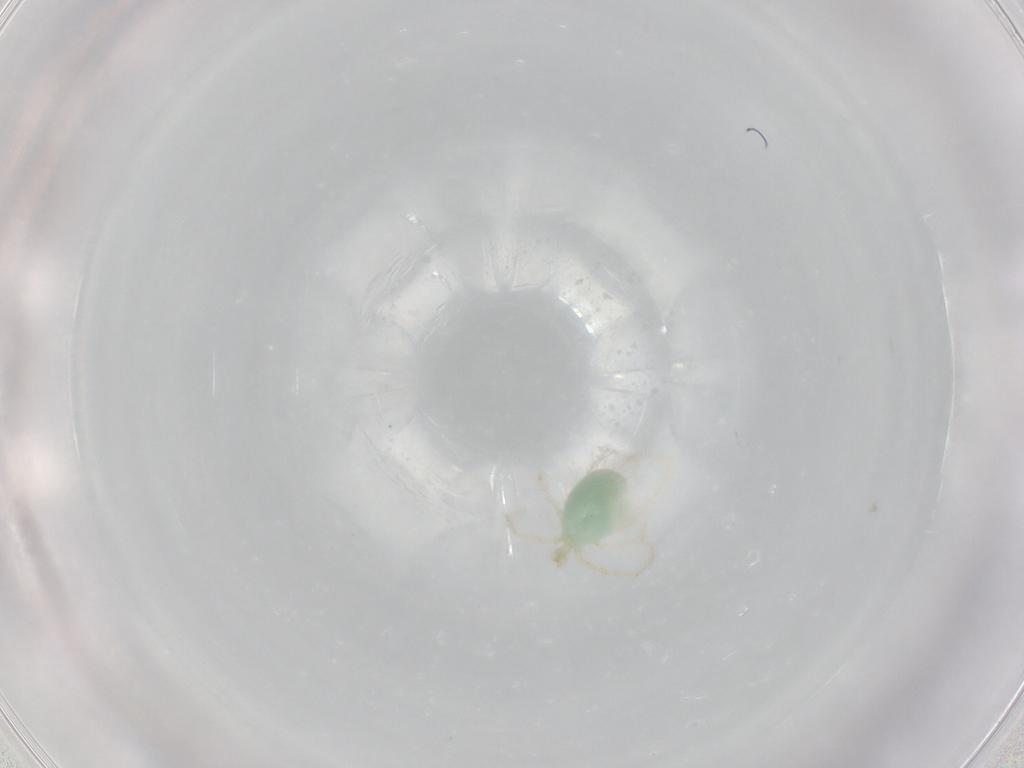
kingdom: Animalia
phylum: Arthropoda
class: Arachnida
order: Araneae
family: Clubionidae
